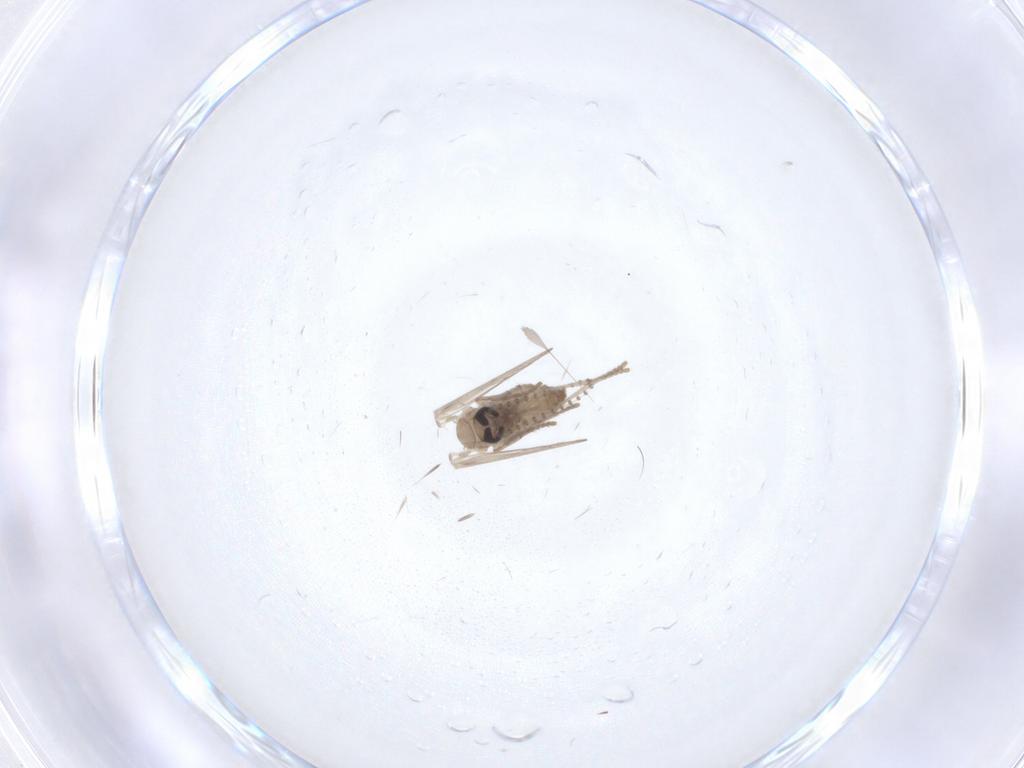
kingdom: Animalia
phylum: Arthropoda
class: Insecta
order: Diptera
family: Psychodidae
